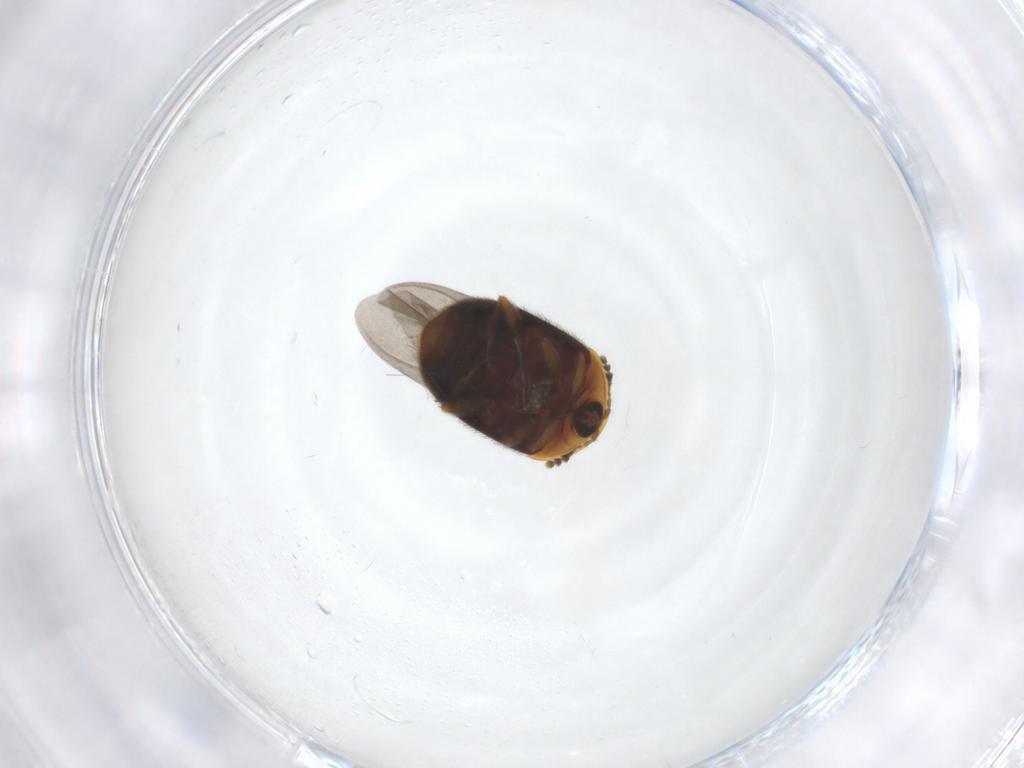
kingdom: Animalia
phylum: Arthropoda
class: Insecta
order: Coleoptera
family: Corylophidae
